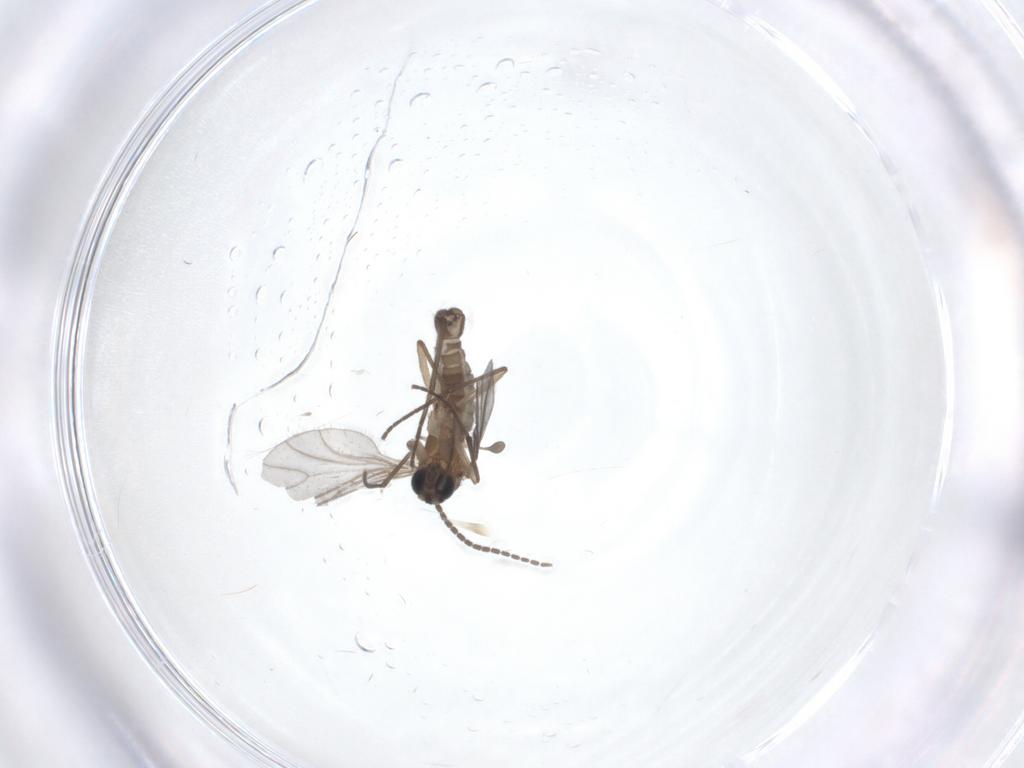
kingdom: Animalia
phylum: Arthropoda
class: Insecta
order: Diptera
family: Sciaridae
